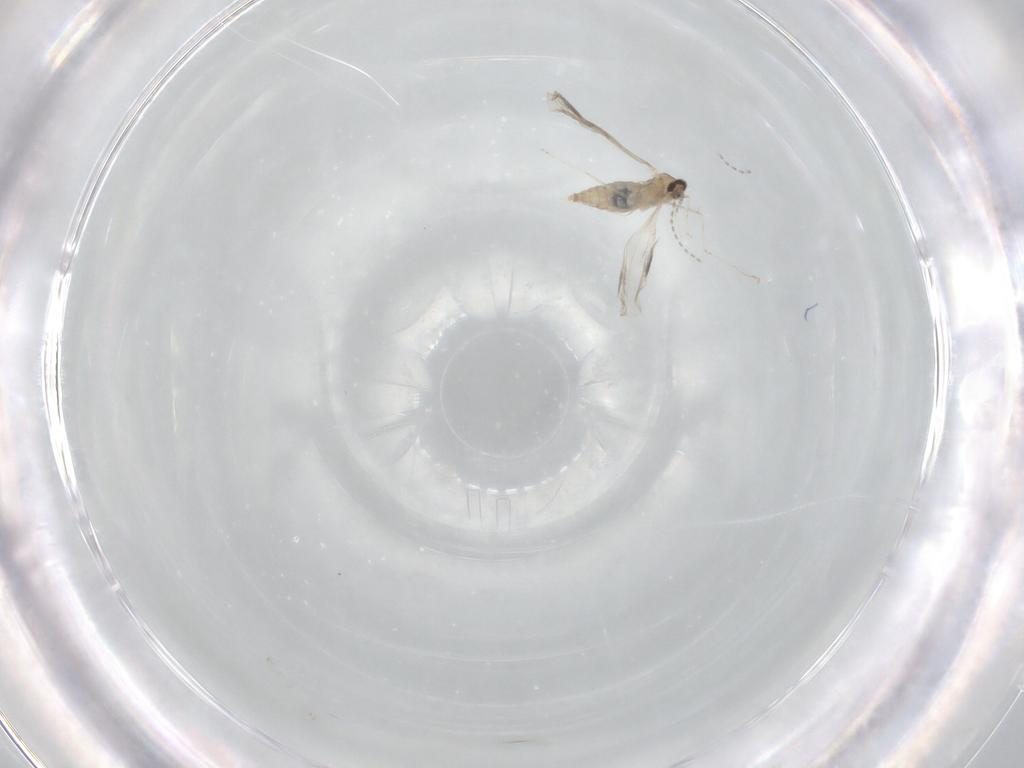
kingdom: Animalia
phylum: Arthropoda
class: Insecta
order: Diptera
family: Cecidomyiidae
